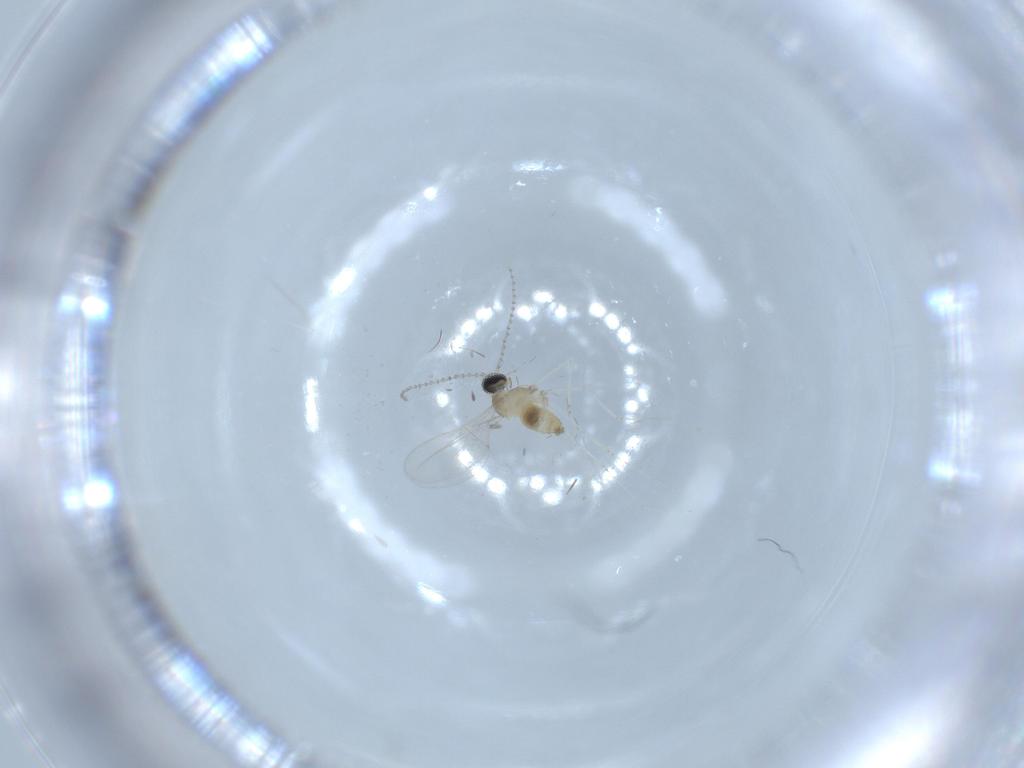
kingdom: Animalia
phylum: Arthropoda
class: Insecta
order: Diptera
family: Cecidomyiidae
